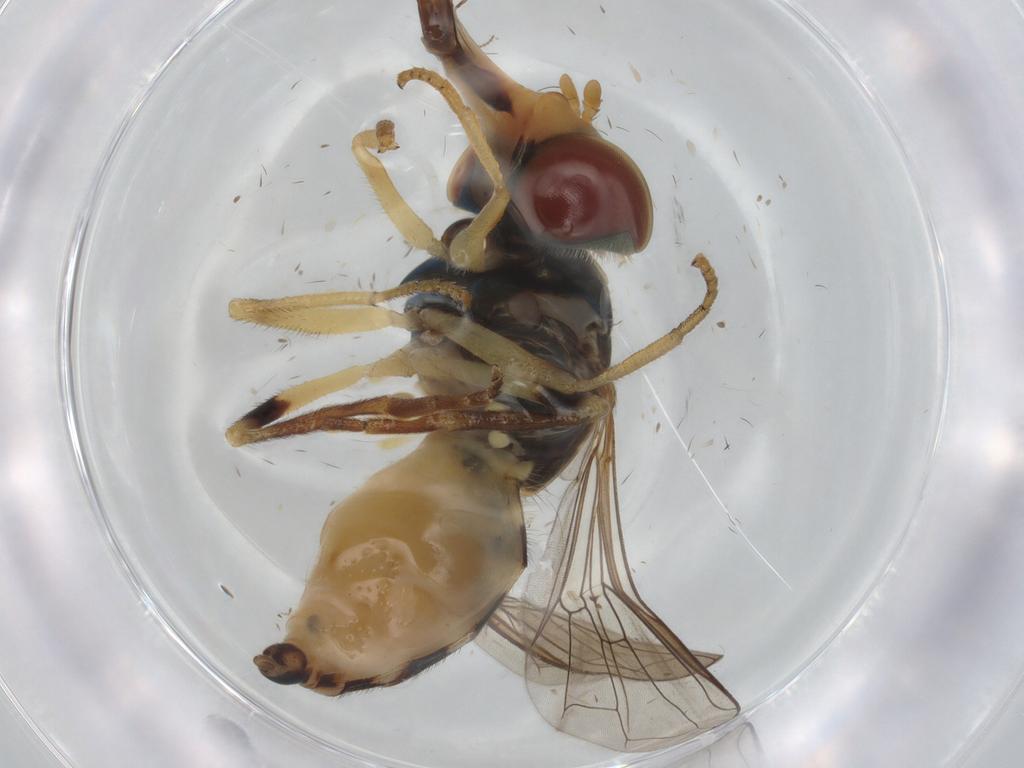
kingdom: Animalia
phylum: Arthropoda
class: Insecta
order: Diptera
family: Syrphidae
